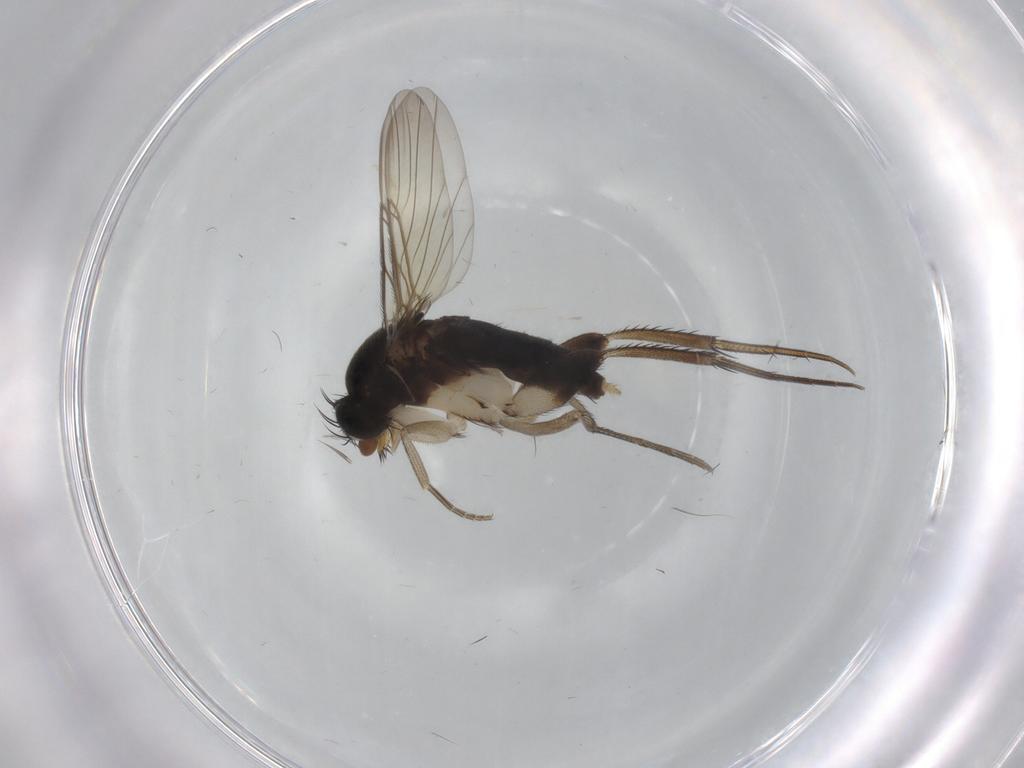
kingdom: Animalia
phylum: Arthropoda
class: Insecta
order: Diptera
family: Phoridae
